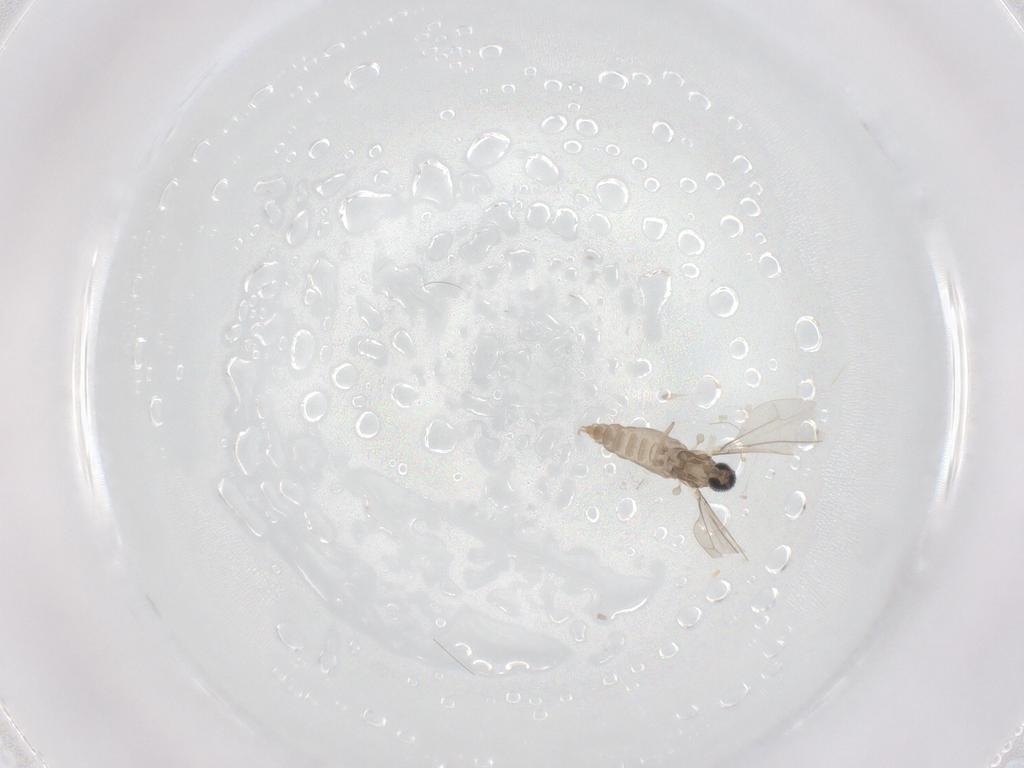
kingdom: Animalia
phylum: Arthropoda
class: Insecta
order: Diptera
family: Cecidomyiidae
